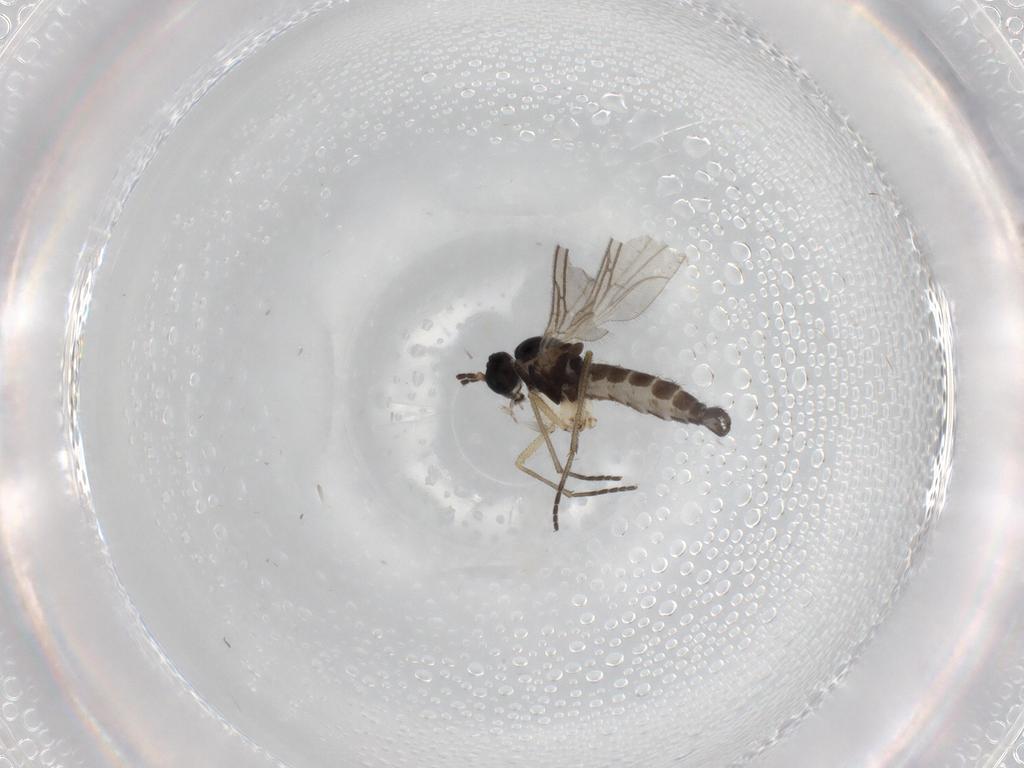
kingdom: Animalia
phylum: Arthropoda
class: Insecta
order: Diptera
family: Sciaridae
